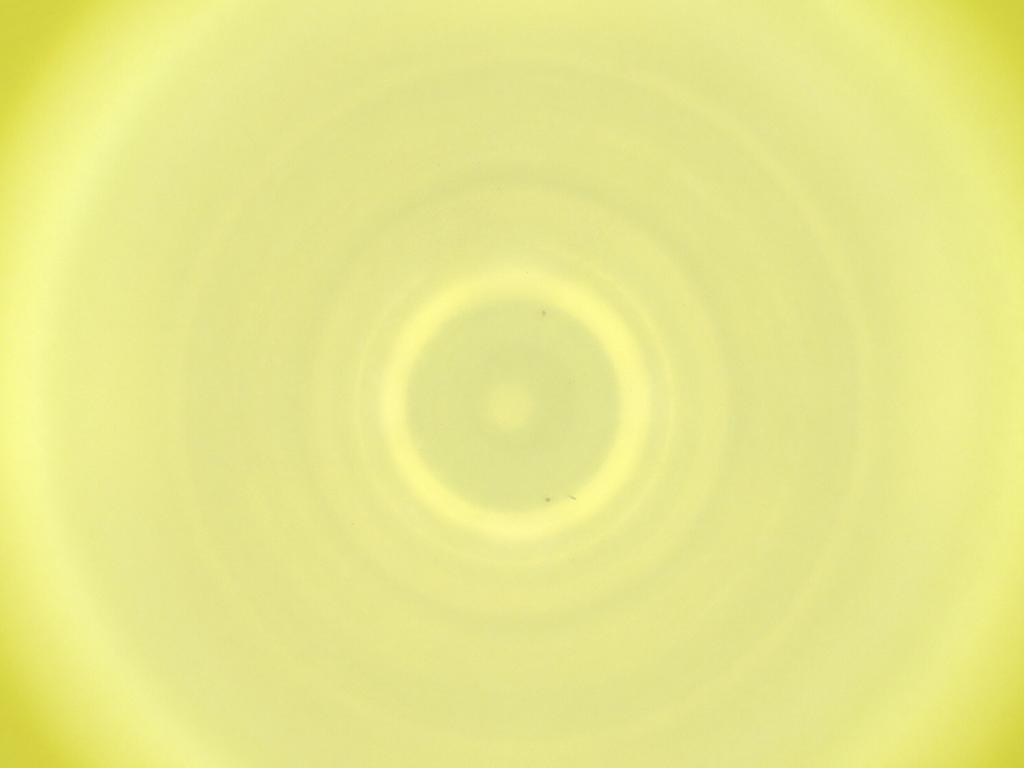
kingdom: Animalia
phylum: Arthropoda
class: Insecta
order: Diptera
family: Cecidomyiidae
